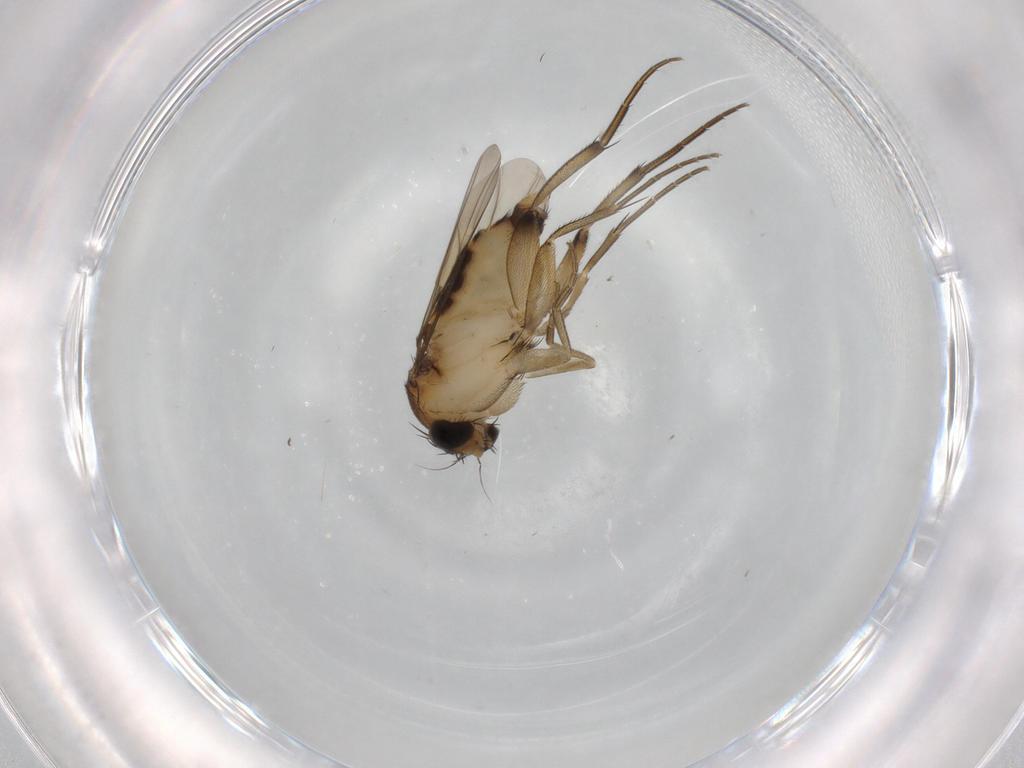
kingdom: Animalia
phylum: Arthropoda
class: Insecta
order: Diptera
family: Phoridae
